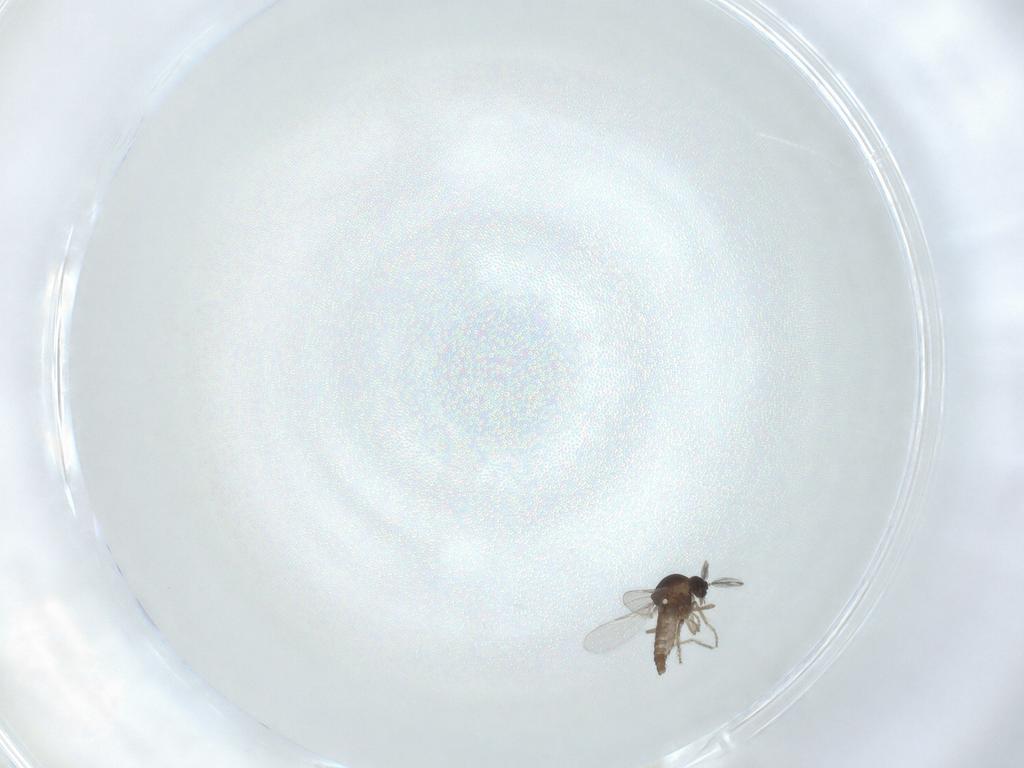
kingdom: Animalia
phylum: Arthropoda
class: Insecta
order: Diptera
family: Ceratopogonidae
